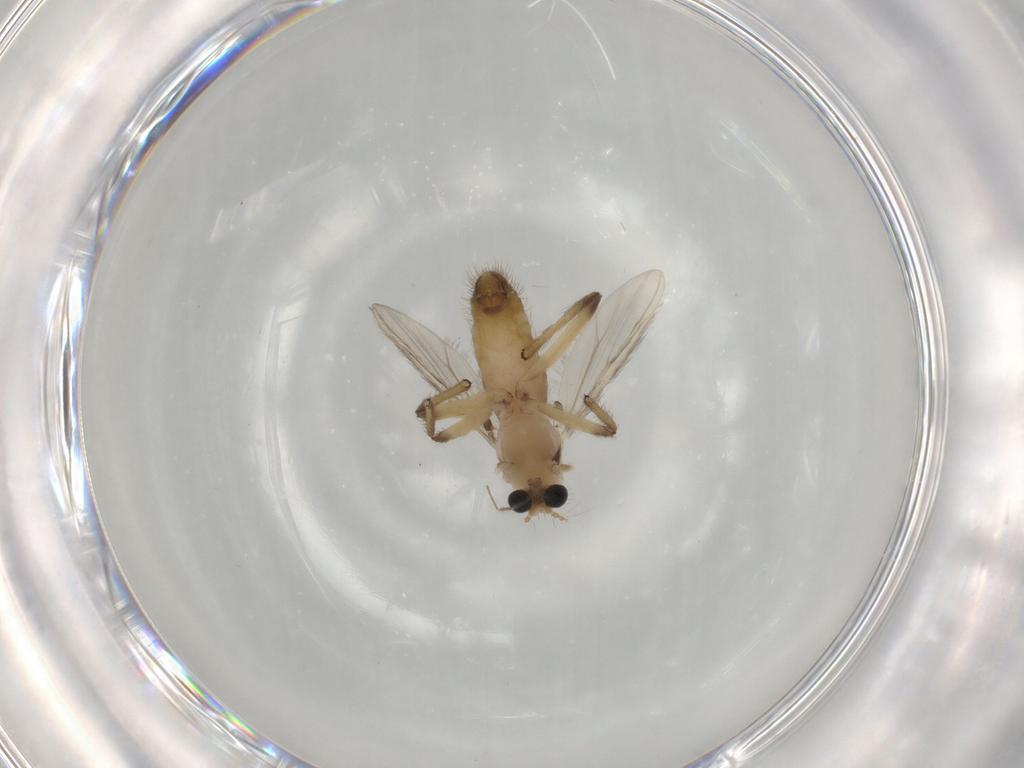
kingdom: Animalia
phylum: Arthropoda
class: Insecta
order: Diptera
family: Chironomidae
